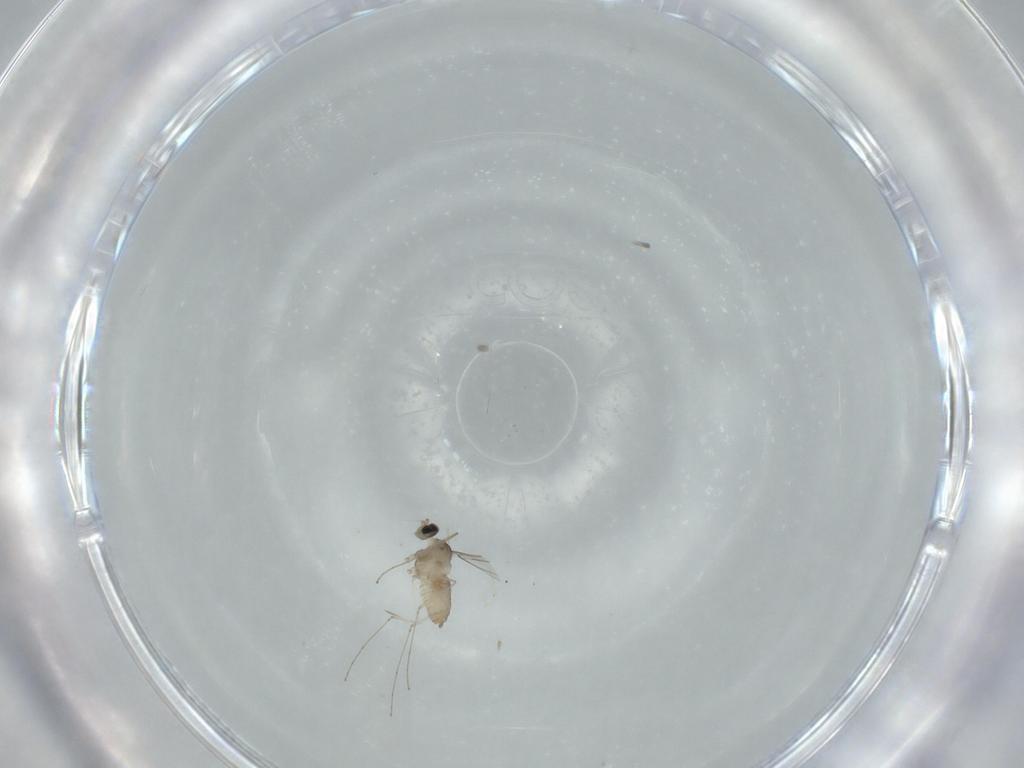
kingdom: Animalia
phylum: Arthropoda
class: Insecta
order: Diptera
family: Cecidomyiidae
